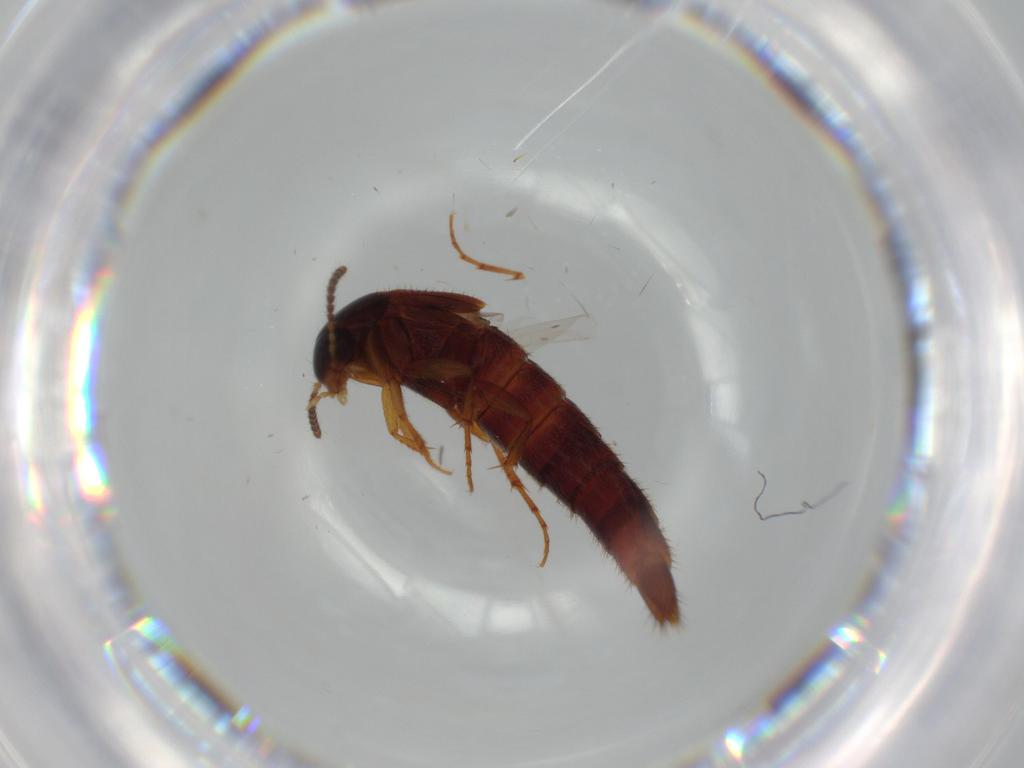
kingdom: Animalia
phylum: Arthropoda
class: Insecta
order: Coleoptera
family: Staphylinidae
